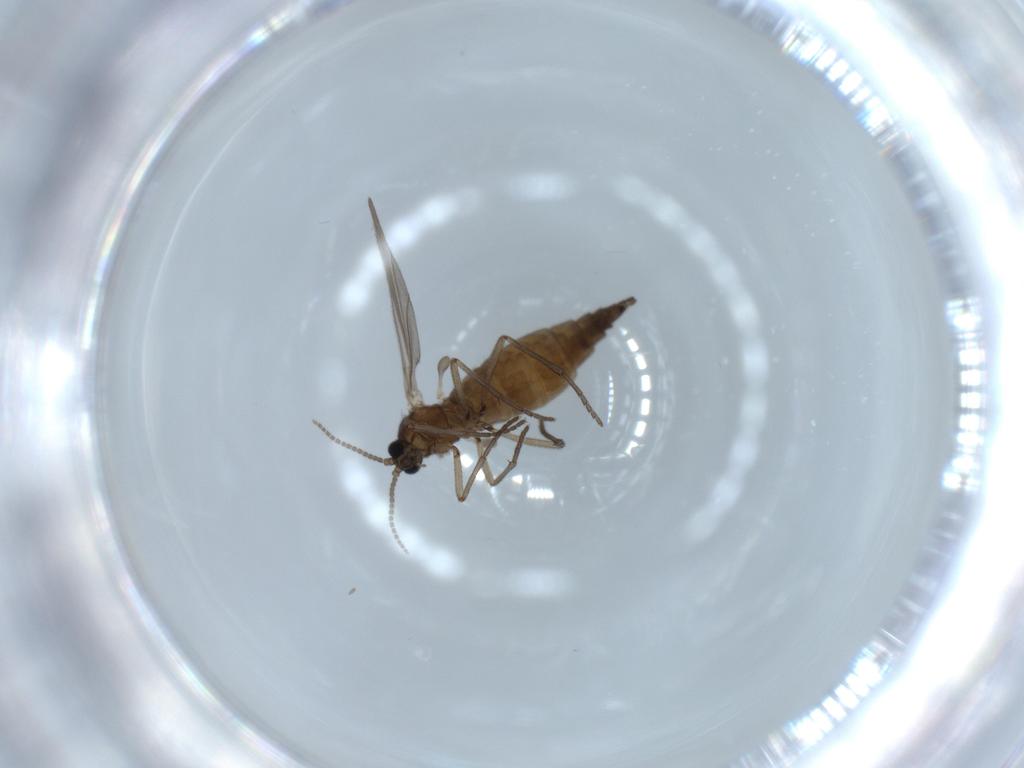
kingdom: Animalia
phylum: Arthropoda
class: Insecta
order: Diptera
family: Sciaridae
